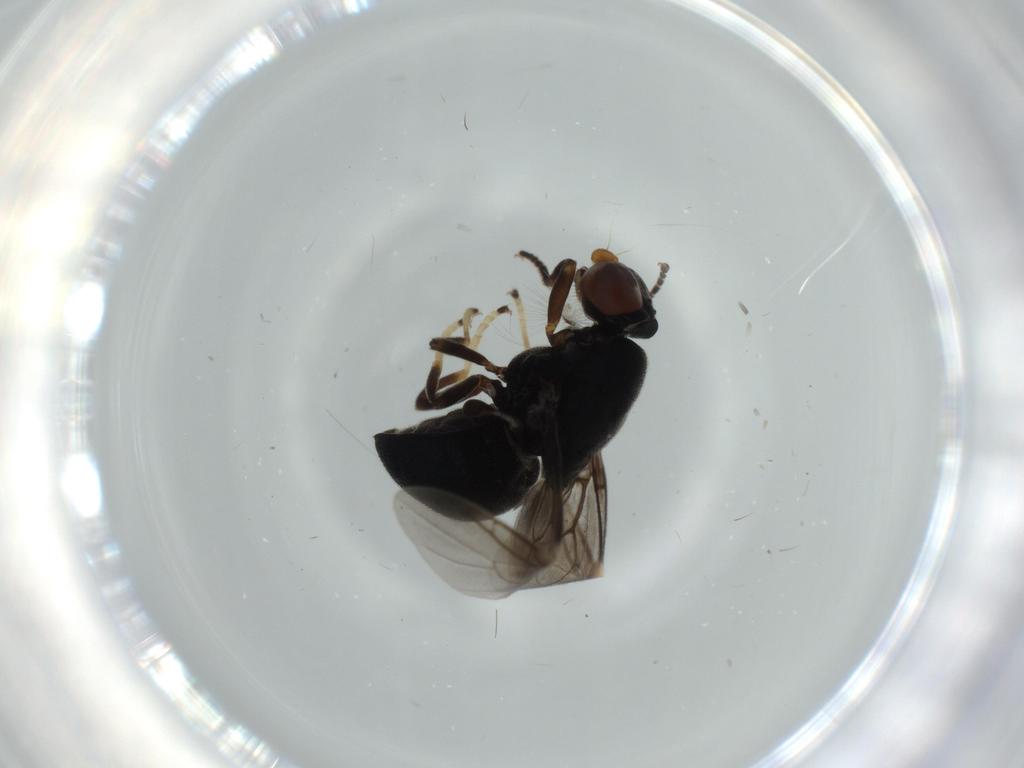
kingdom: Animalia
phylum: Arthropoda
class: Insecta
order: Diptera
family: Stratiomyidae
